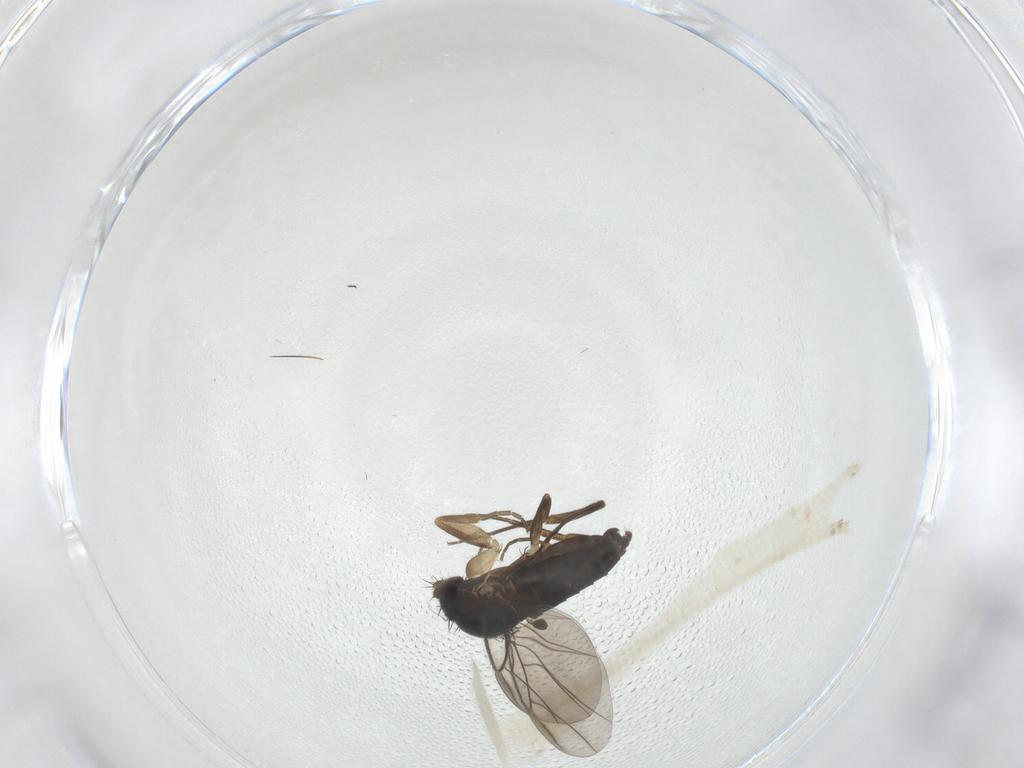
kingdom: Animalia
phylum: Arthropoda
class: Insecta
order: Diptera
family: Phoridae
